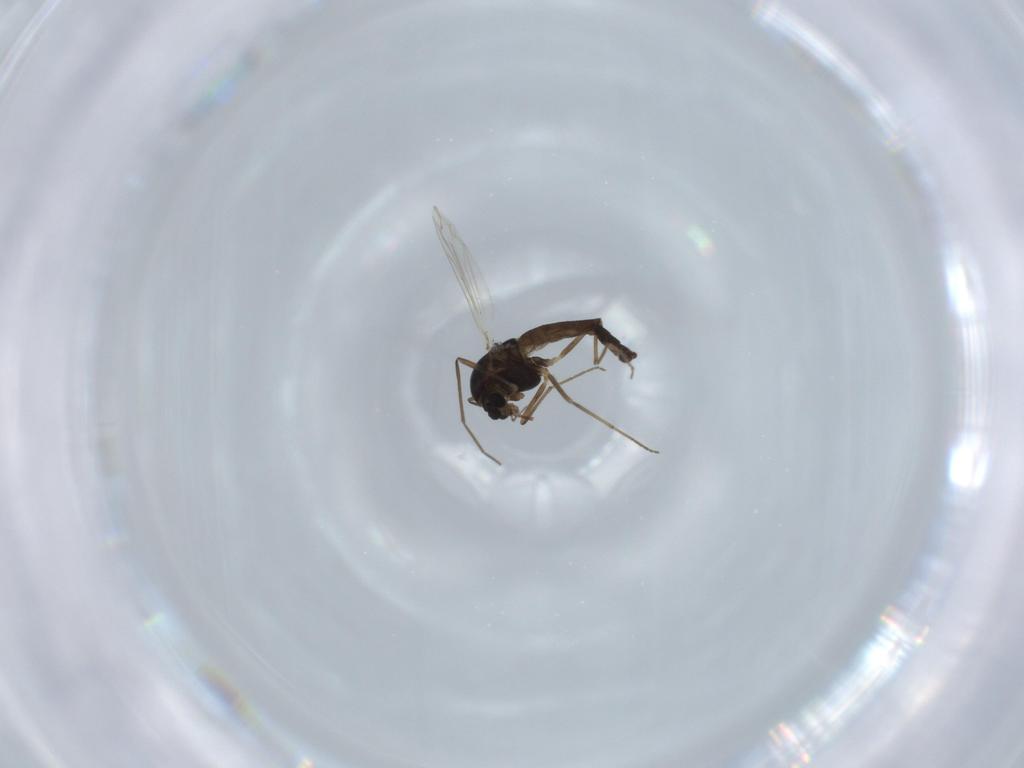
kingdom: Animalia
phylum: Arthropoda
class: Insecta
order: Diptera
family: Chironomidae
